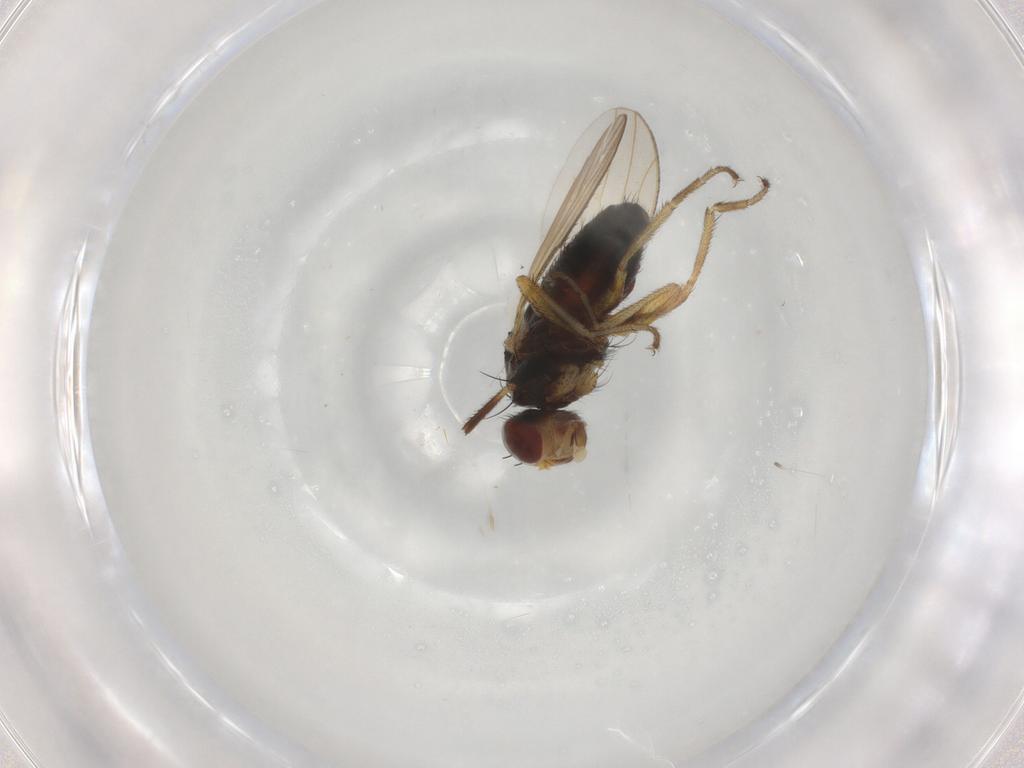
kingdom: Animalia
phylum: Arthropoda
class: Insecta
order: Diptera
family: Heleomyzidae
